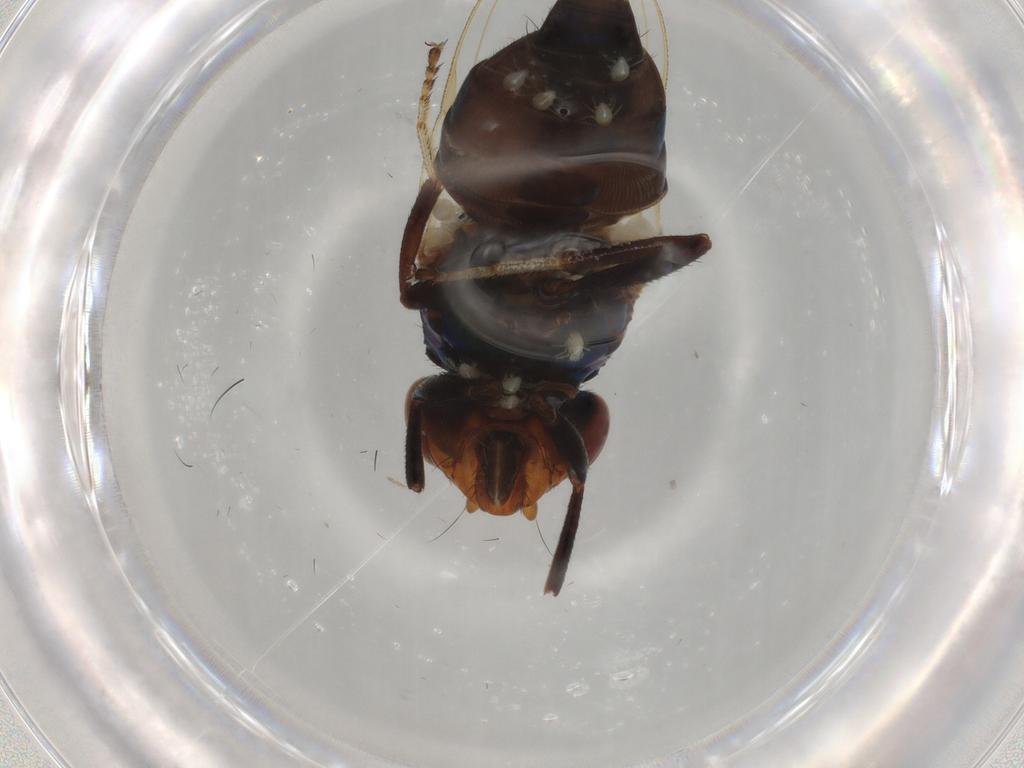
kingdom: Animalia
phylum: Arthropoda
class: Insecta
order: Diptera
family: Cecidomyiidae
